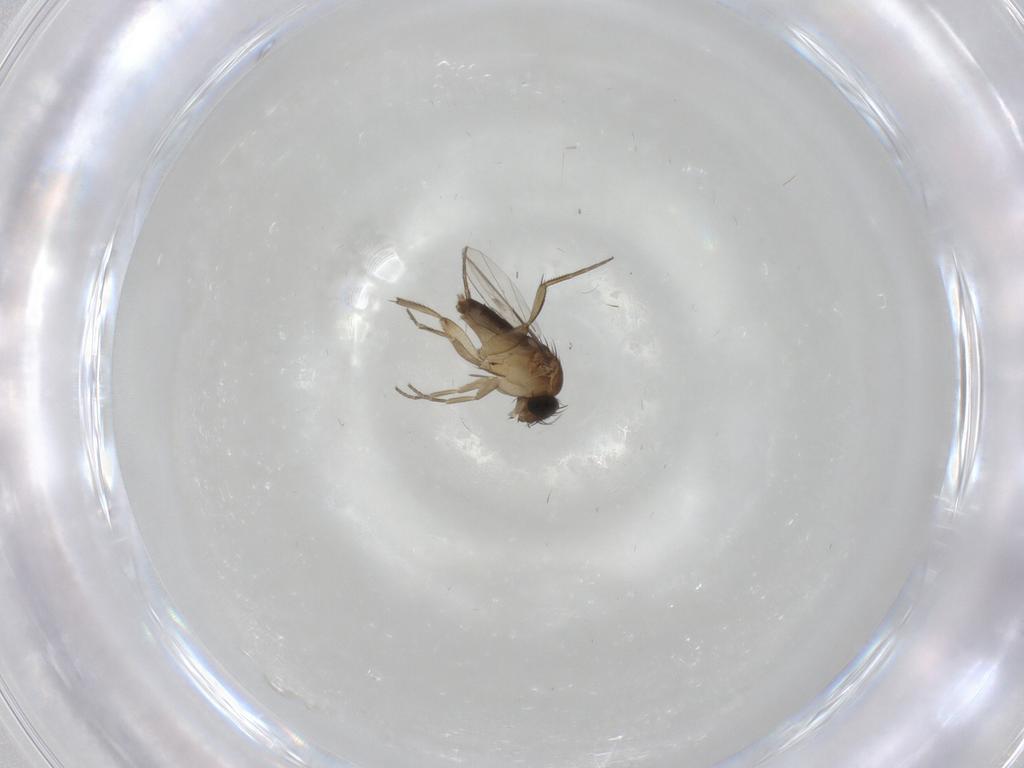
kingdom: Animalia
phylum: Arthropoda
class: Insecta
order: Diptera
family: Phoridae
